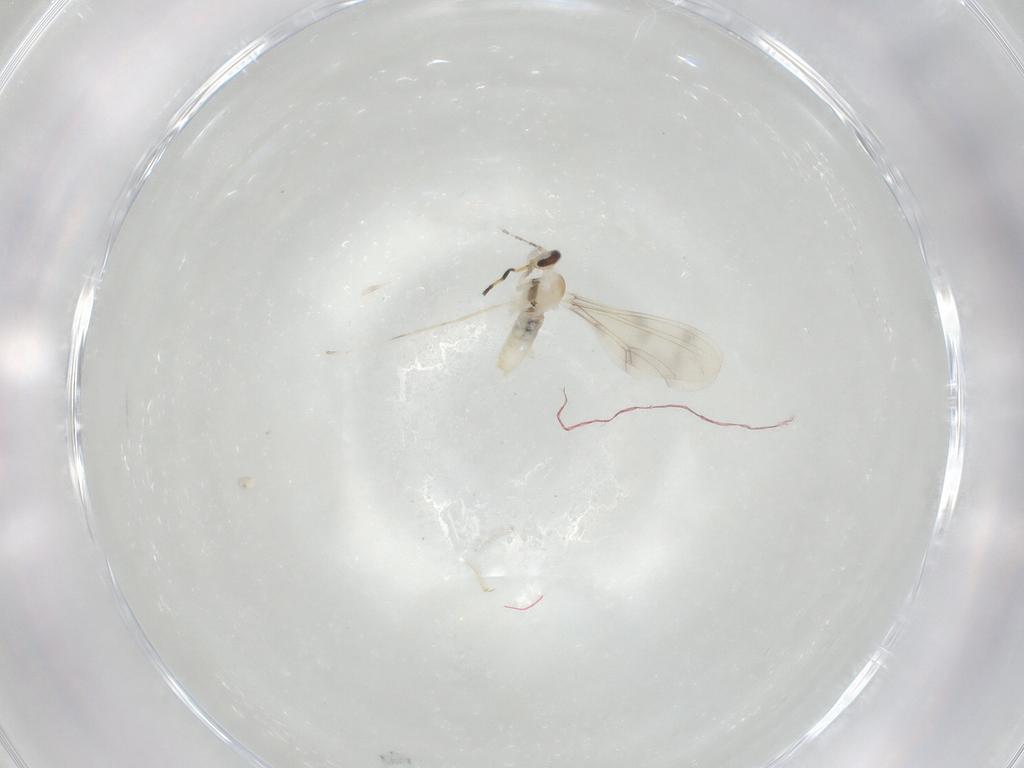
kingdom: Animalia
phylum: Arthropoda
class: Insecta
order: Diptera
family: Cecidomyiidae
